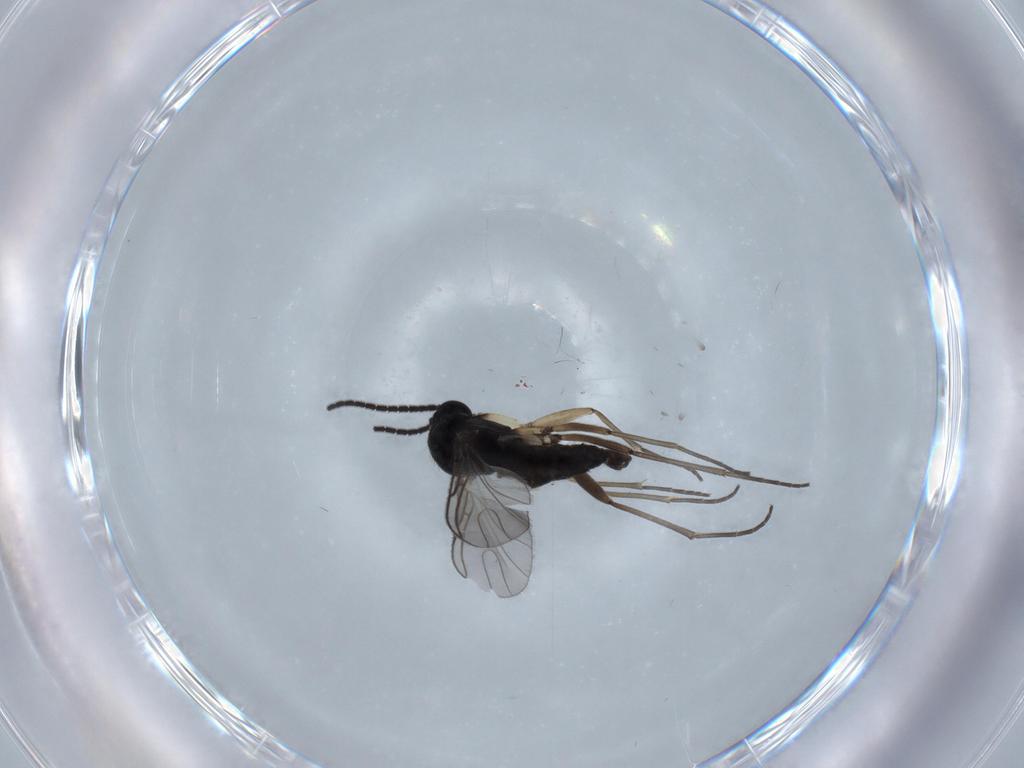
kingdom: Animalia
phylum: Arthropoda
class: Insecta
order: Diptera
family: Sciaridae
